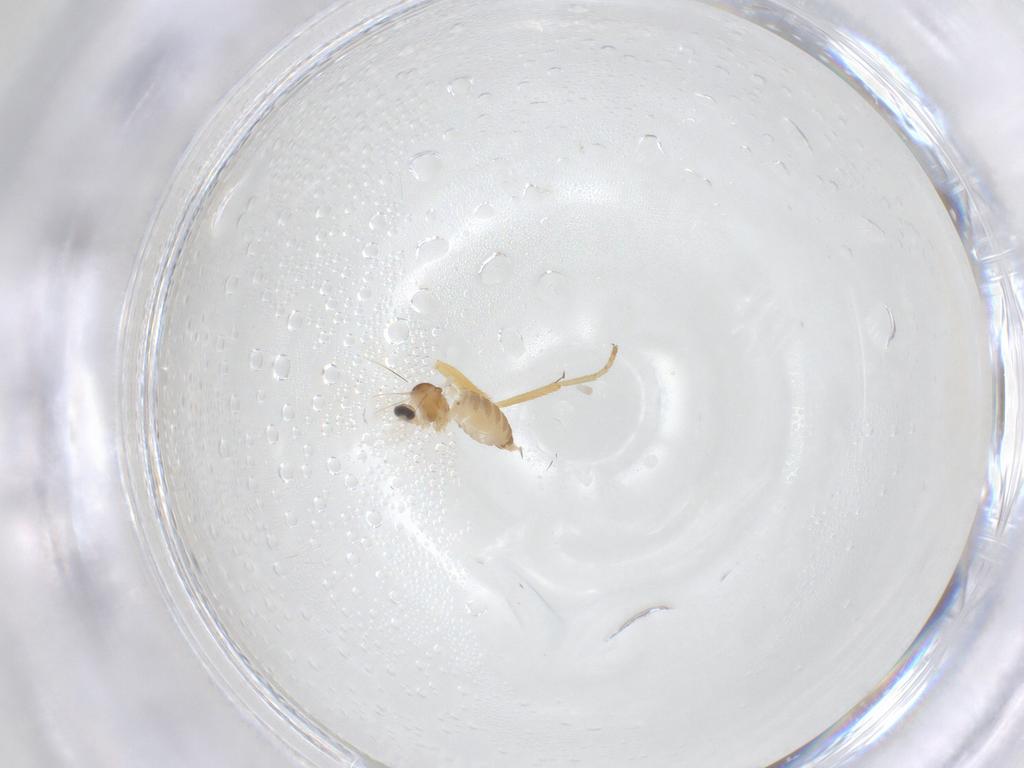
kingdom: Animalia
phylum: Arthropoda
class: Insecta
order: Diptera
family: Cecidomyiidae
